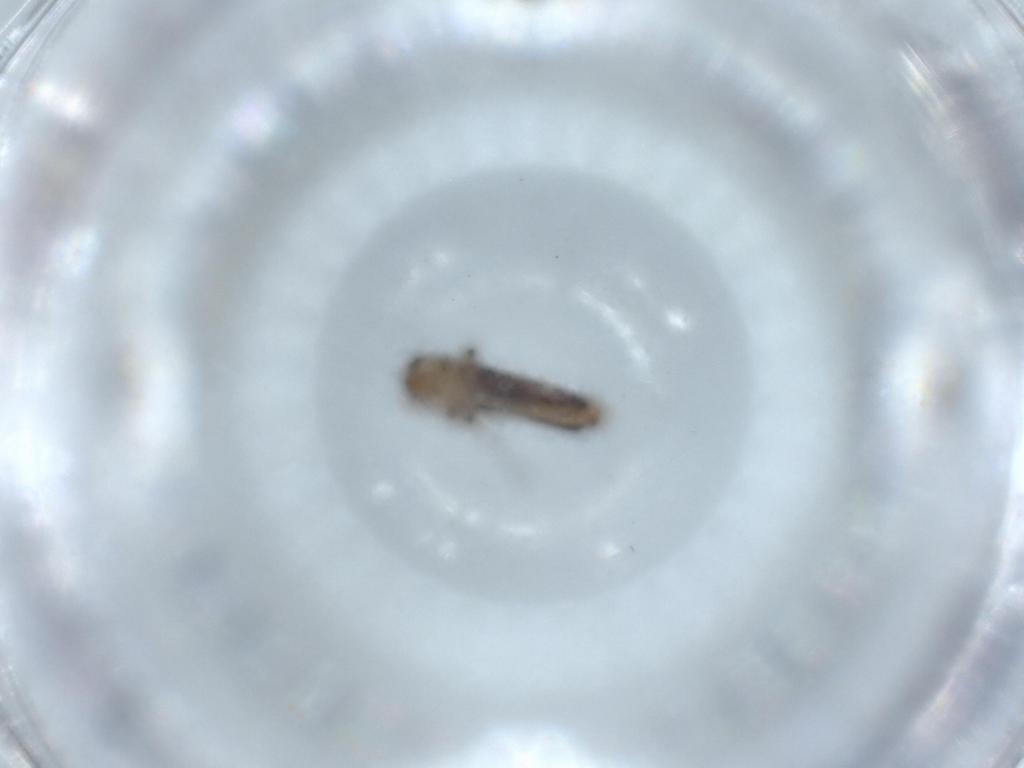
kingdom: Animalia
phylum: Arthropoda
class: Collembola
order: Entomobryomorpha
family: Entomobryidae
